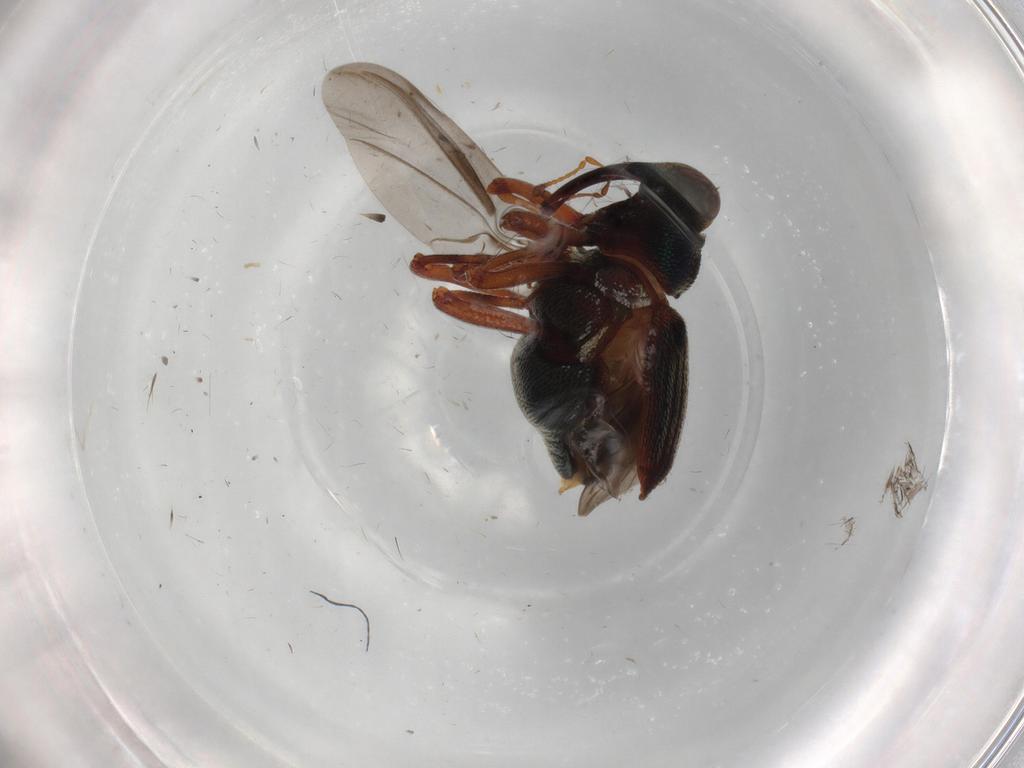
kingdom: Animalia
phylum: Arthropoda
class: Insecta
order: Coleoptera
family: Curculionidae
